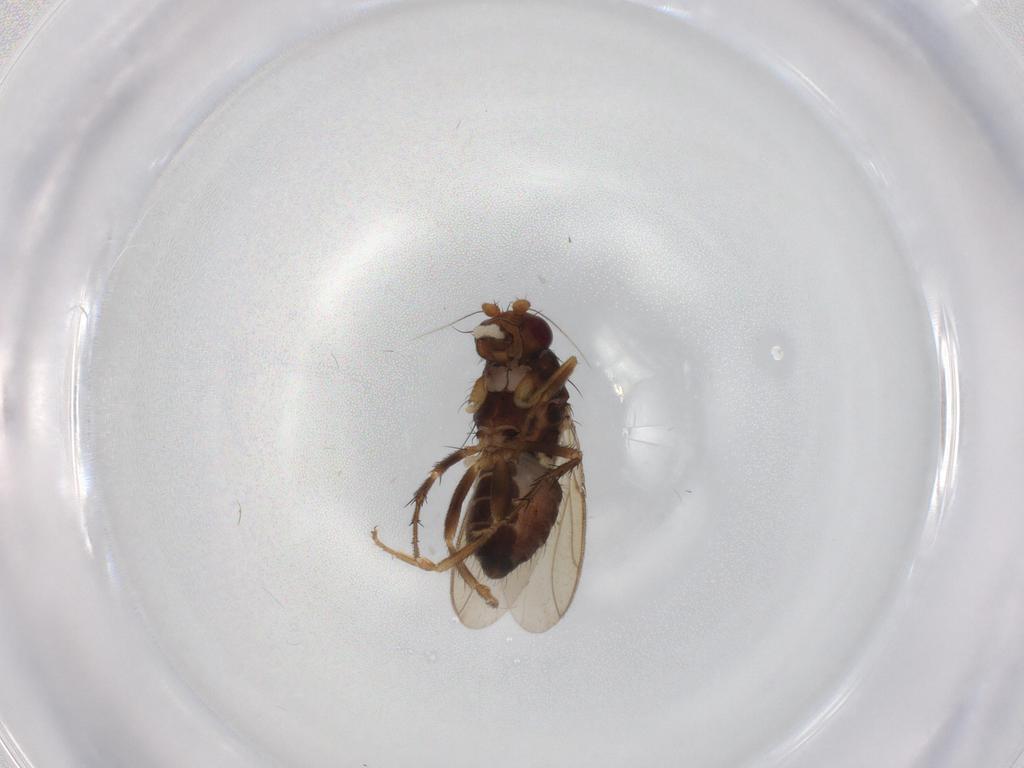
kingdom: Animalia
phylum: Arthropoda
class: Insecta
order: Diptera
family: Sphaeroceridae
